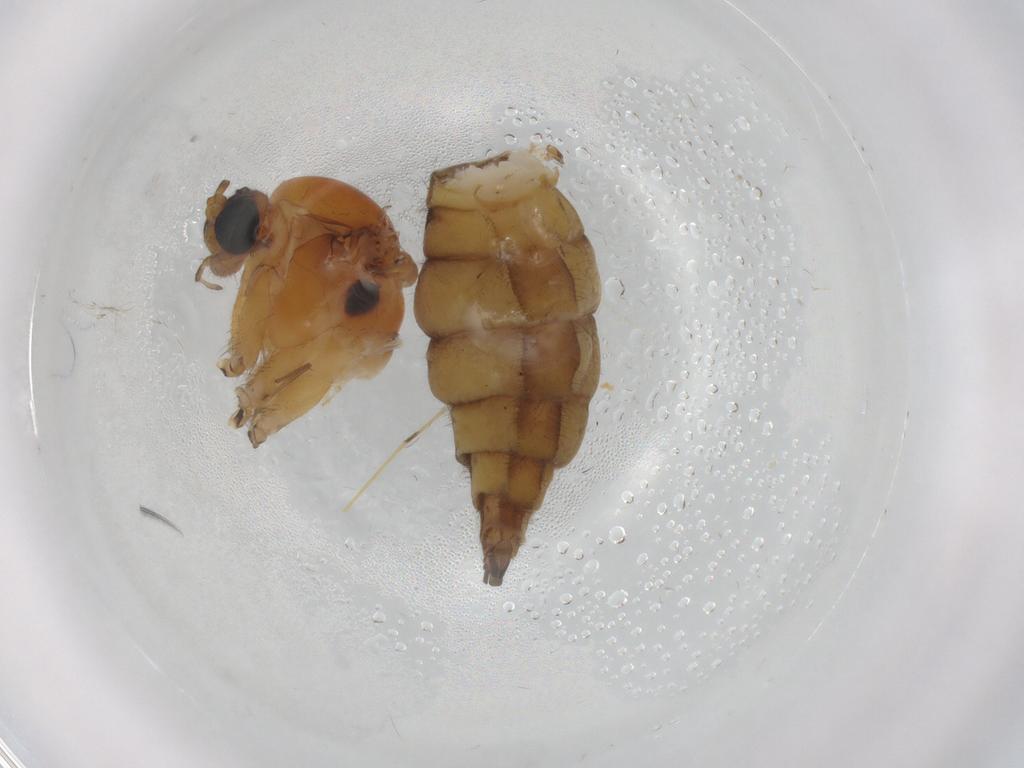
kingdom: Animalia
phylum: Arthropoda
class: Insecta
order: Diptera
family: Sciaridae
